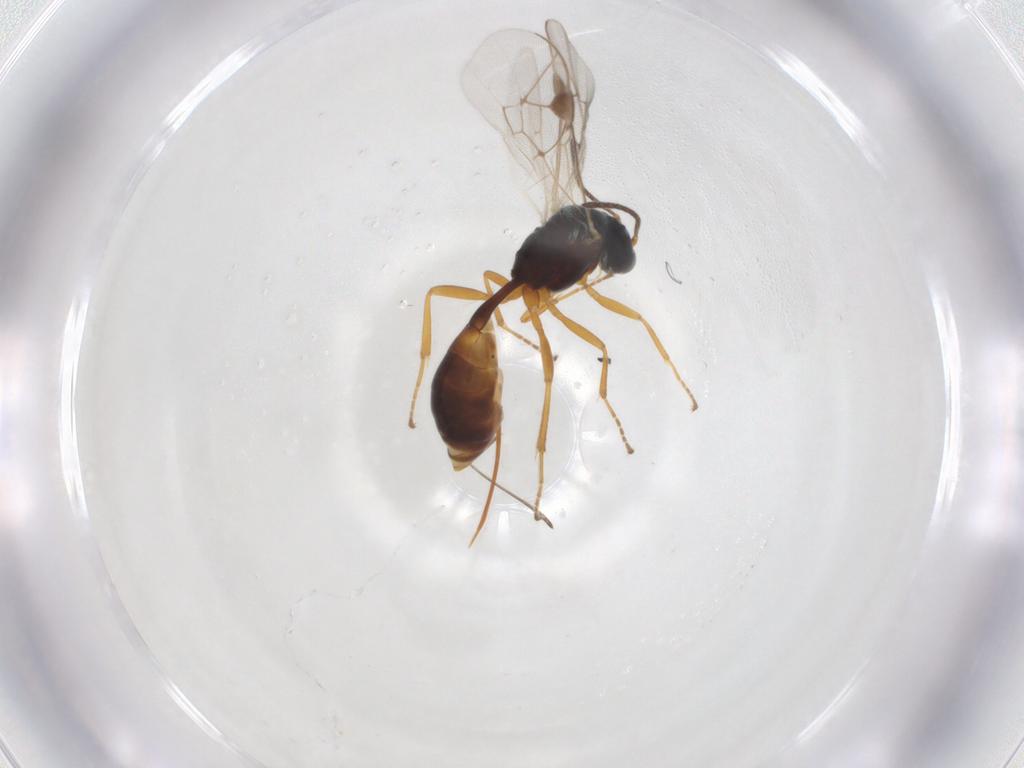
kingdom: Animalia
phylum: Arthropoda
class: Insecta
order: Hymenoptera
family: Ichneumonidae
